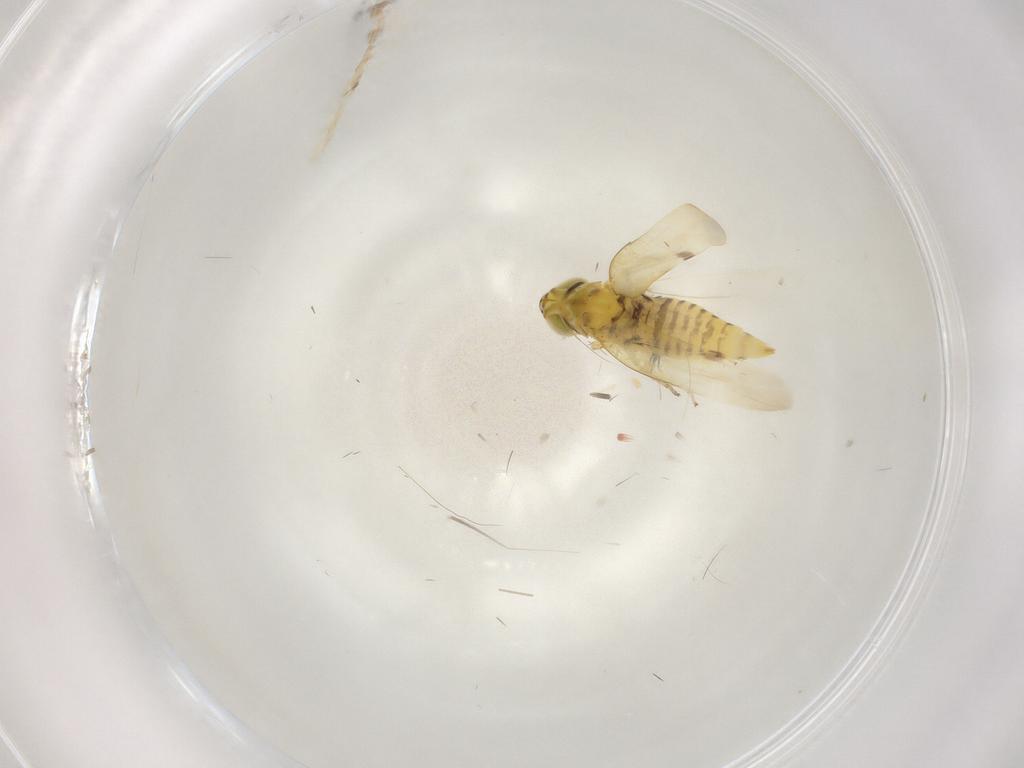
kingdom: Animalia
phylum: Arthropoda
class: Insecta
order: Hemiptera
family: Cicadellidae
